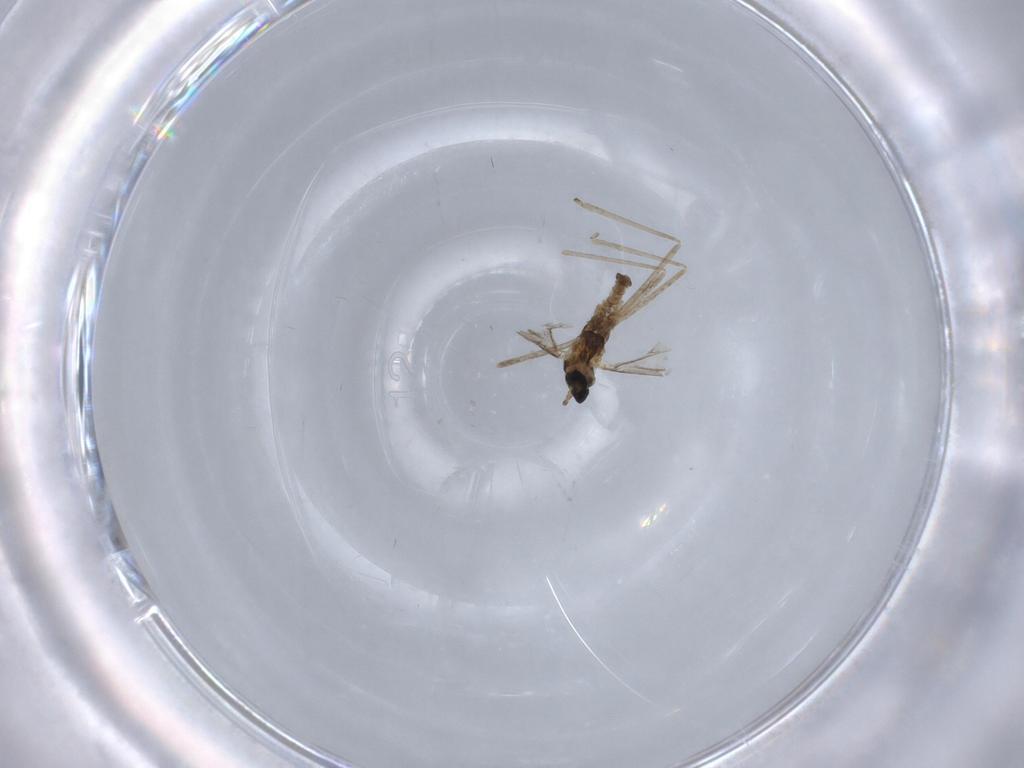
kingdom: Animalia
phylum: Arthropoda
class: Insecta
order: Diptera
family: Cecidomyiidae
